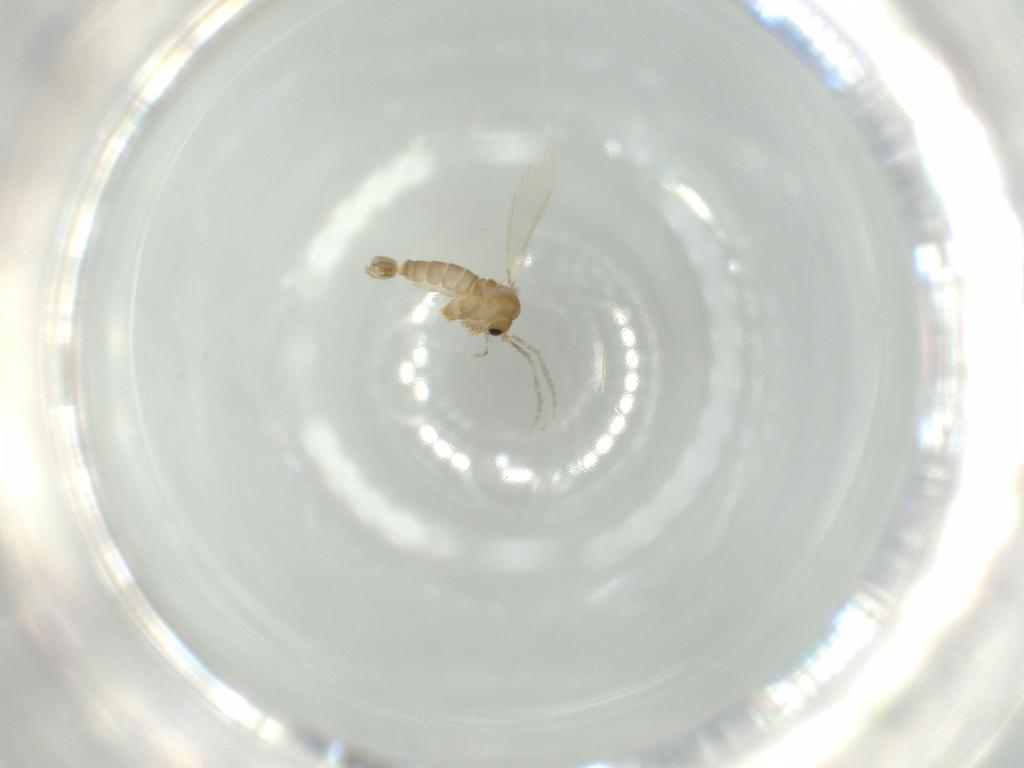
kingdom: Animalia
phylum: Arthropoda
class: Insecta
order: Diptera
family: Psychodidae
